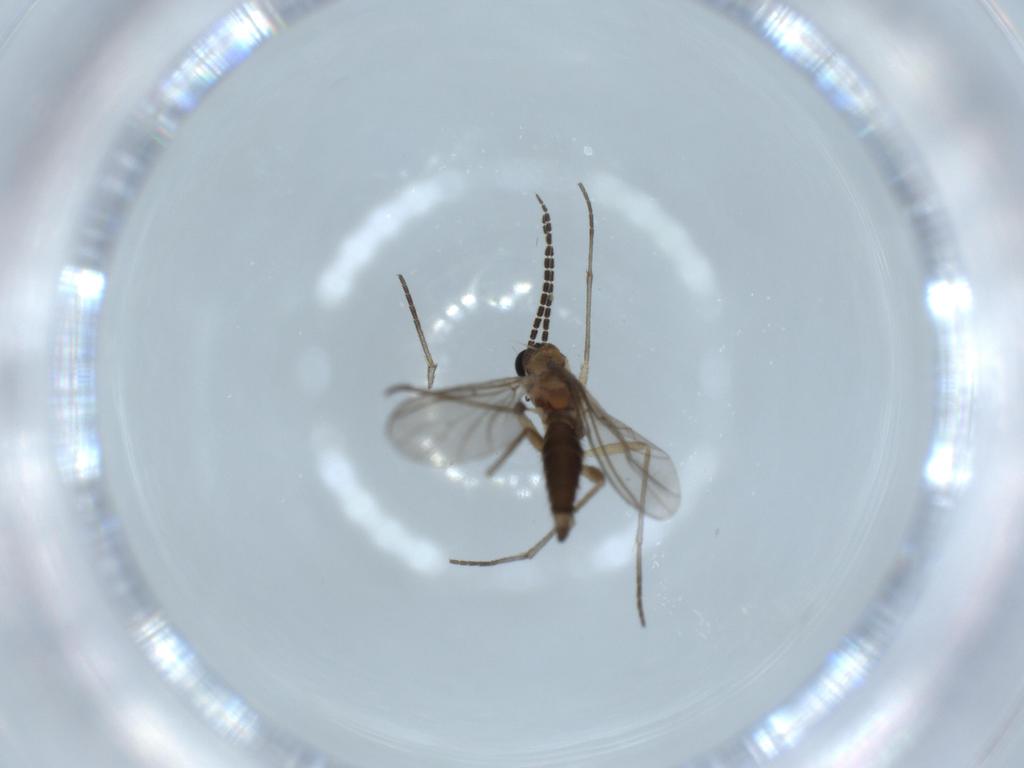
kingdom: Animalia
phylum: Arthropoda
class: Insecta
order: Diptera
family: Sciaridae
